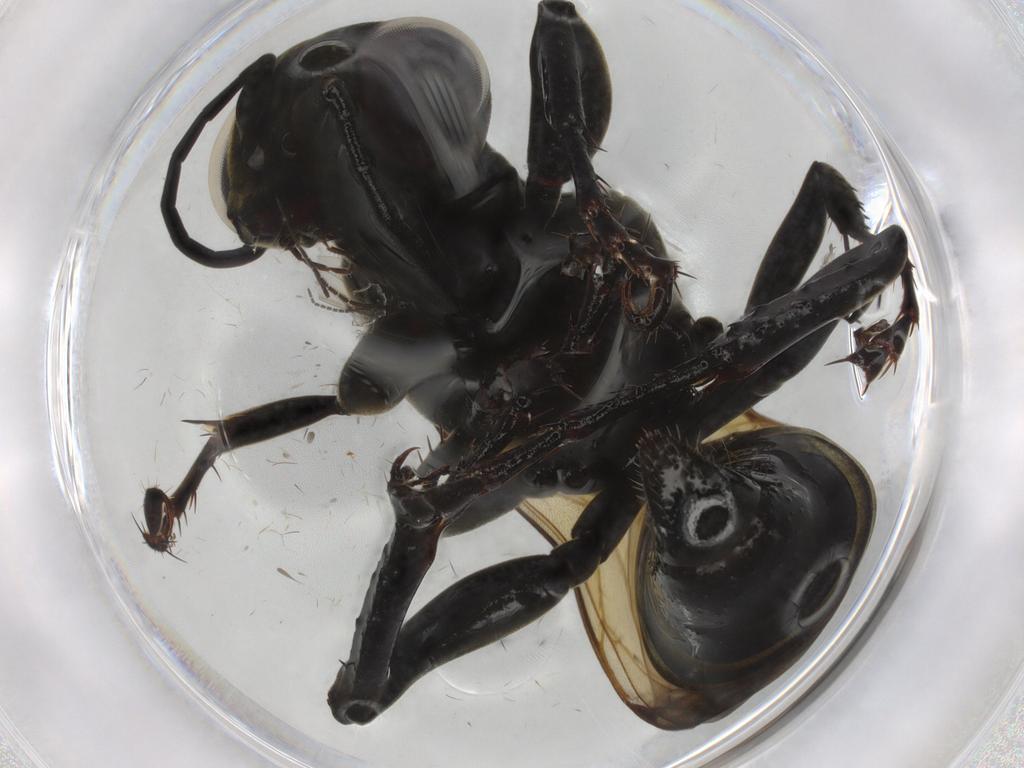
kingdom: Animalia
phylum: Arthropoda
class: Insecta
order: Hymenoptera
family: Crabronidae
